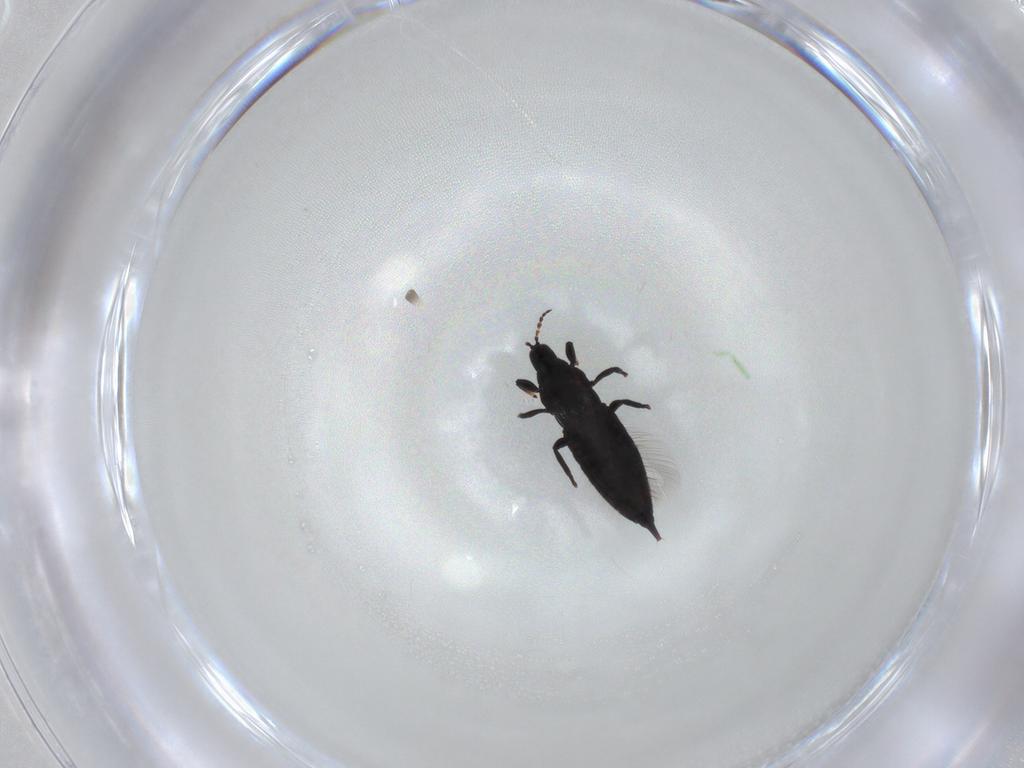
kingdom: Animalia
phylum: Arthropoda
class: Insecta
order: Thysanoptera
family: Phlaeothripidae
